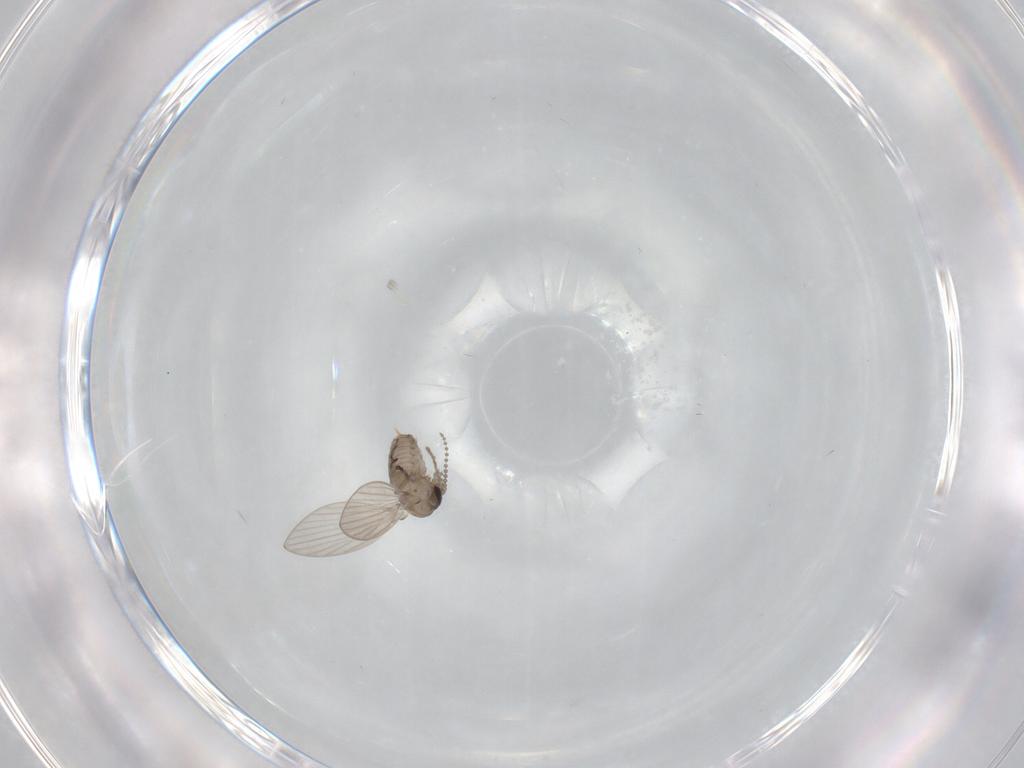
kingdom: Animalia
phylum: Arthropoda
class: Insecta
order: Diptera
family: Psychodidae
